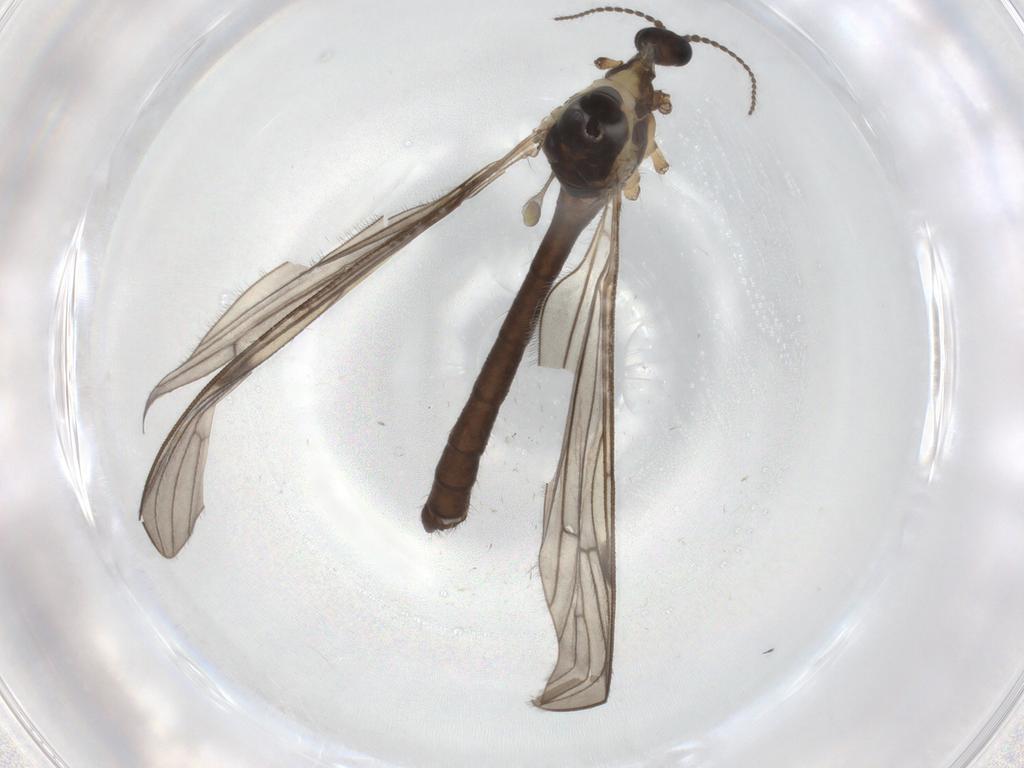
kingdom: Animalia
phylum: Arthropoda
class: Insecta
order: Diptera
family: Limoniidae
